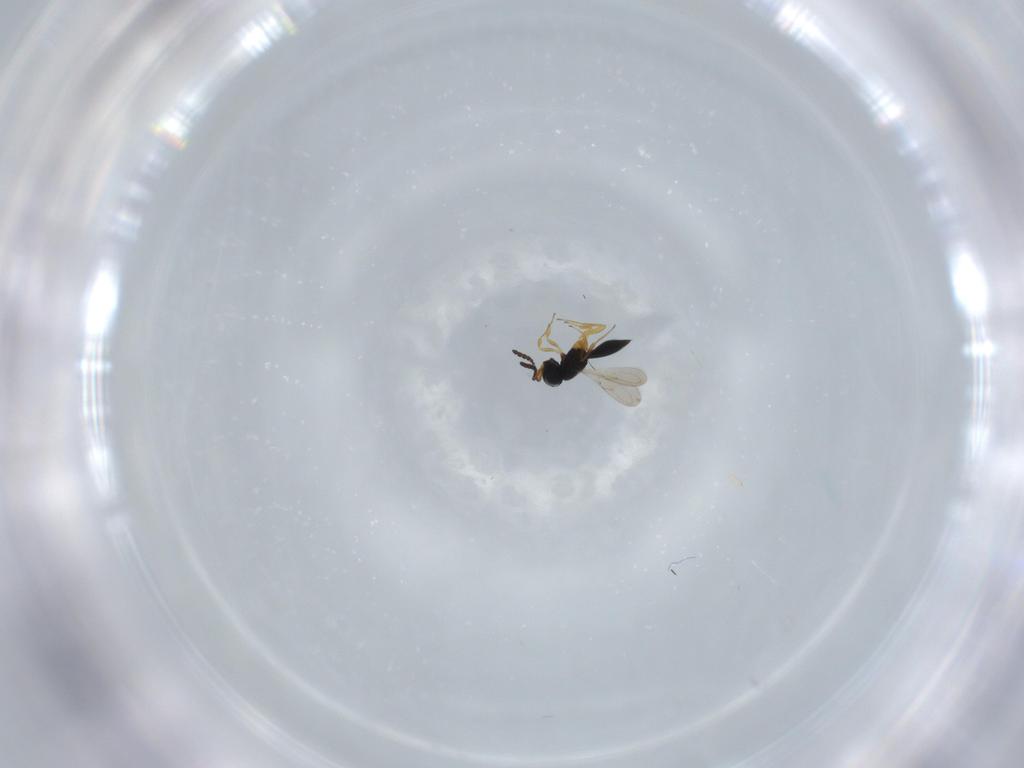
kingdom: Animalia
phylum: Arthropoda
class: Insecta
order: Hymenoptera
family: Scelionidae
